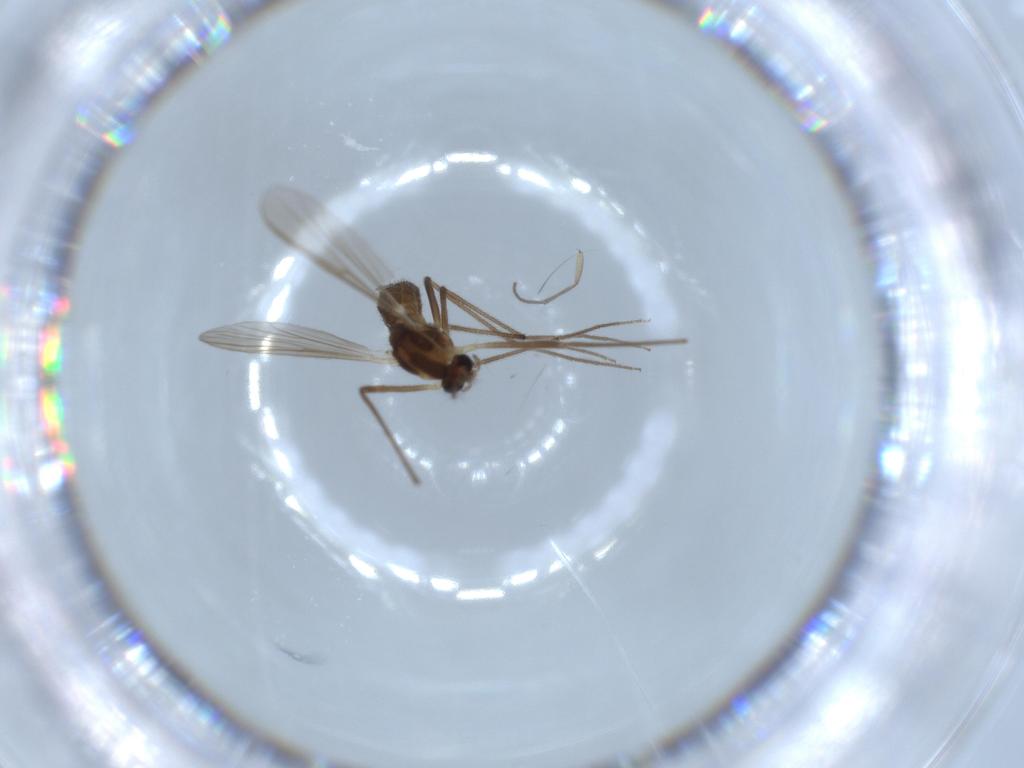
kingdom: Animalia
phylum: Arthropoda
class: Insecta
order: Diptera
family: Chironomidae
